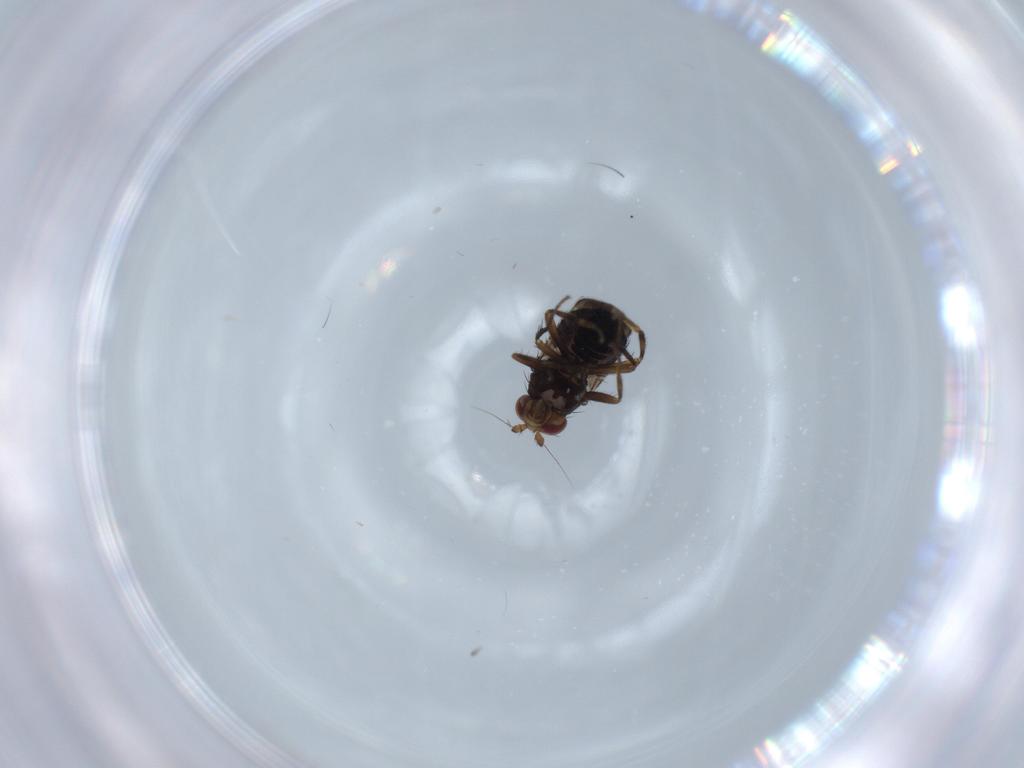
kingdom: Animalia
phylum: Arthropoda
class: Insecta
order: Diptera
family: Sphaeroceridae
